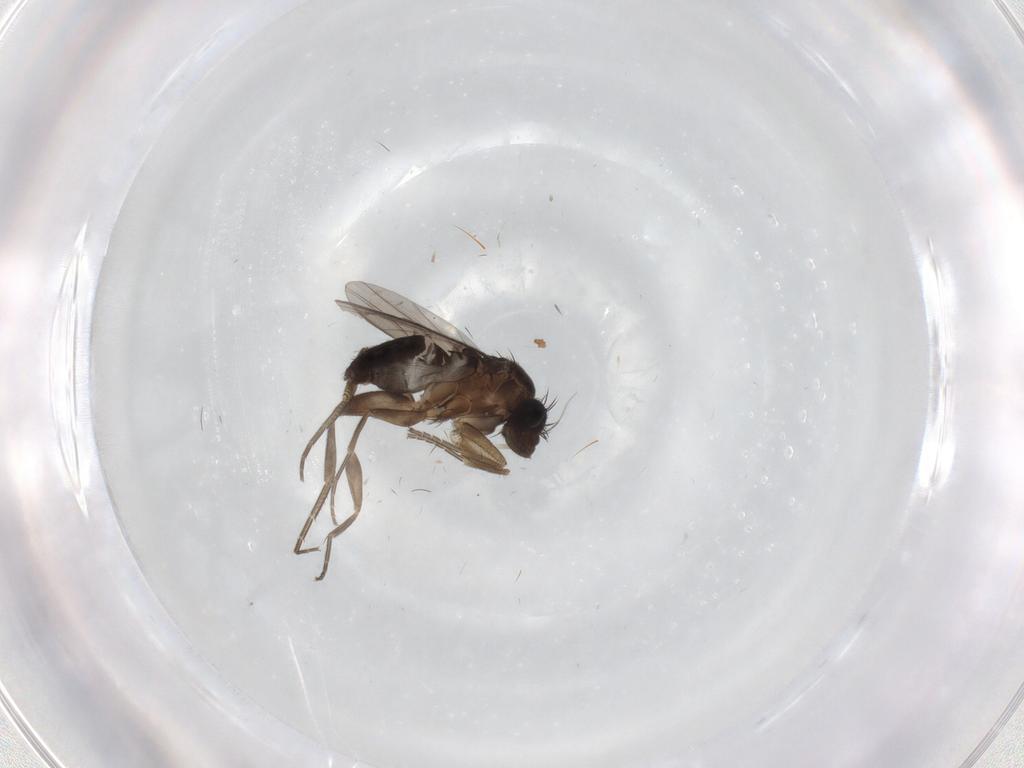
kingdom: Animalia
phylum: Arthropoda
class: Insecta
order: Diptera
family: Phoridae
